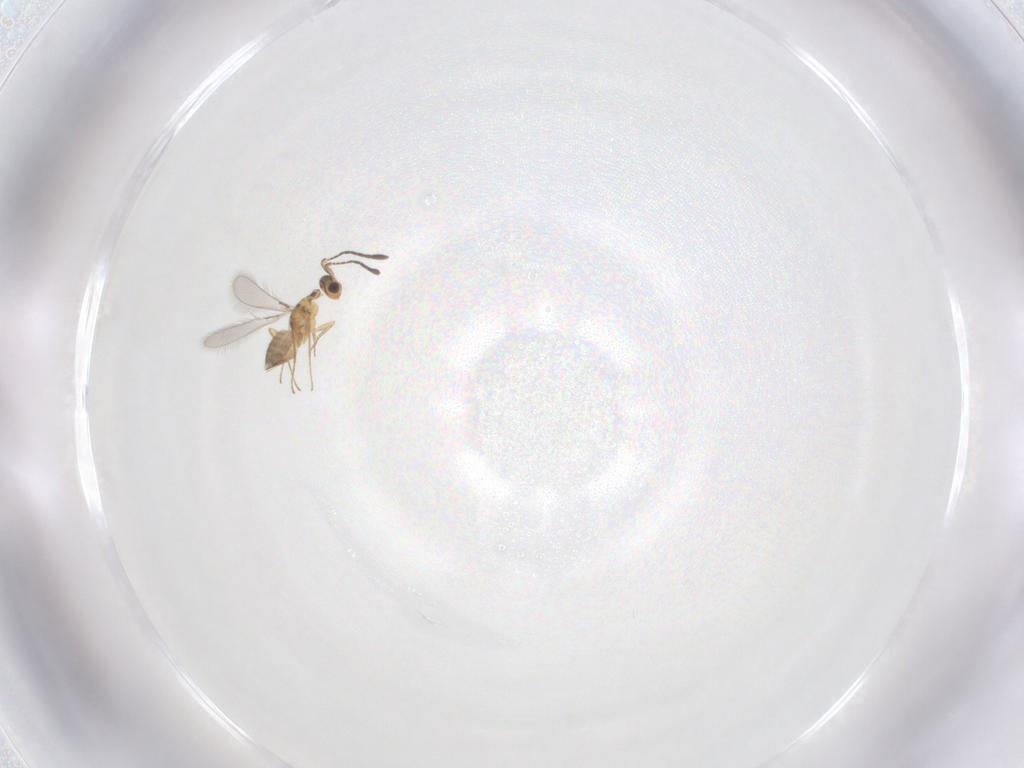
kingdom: Animalia
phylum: Arthropoda
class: Insecta
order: Hymenoptera
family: Mymaridae
